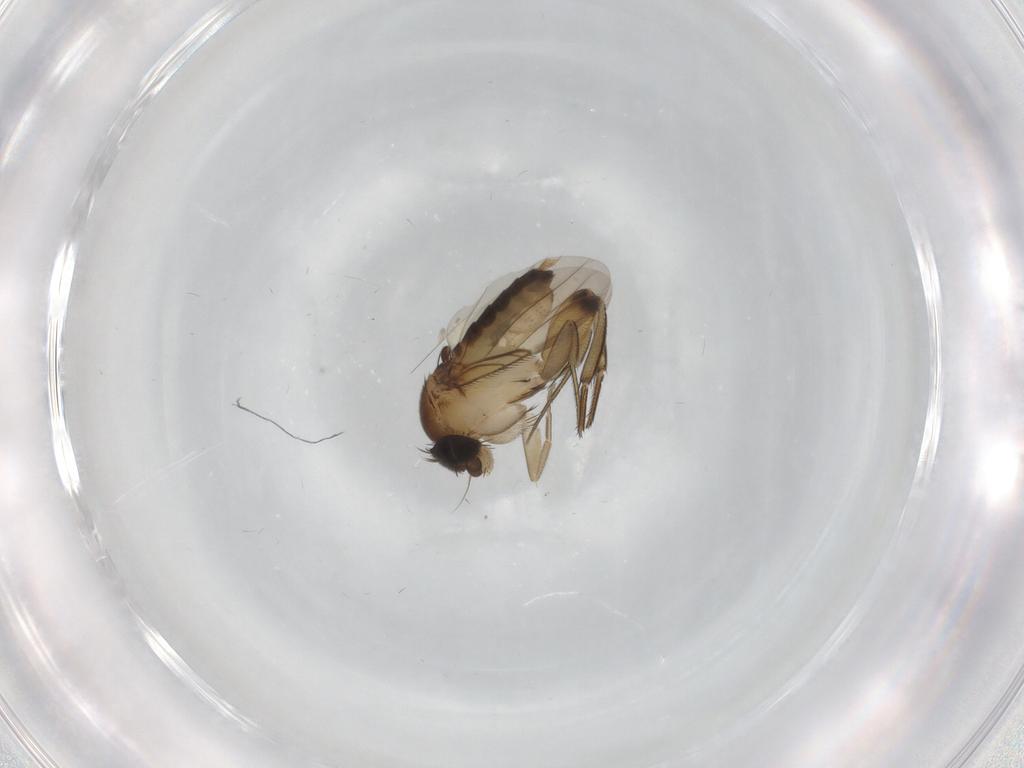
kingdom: Animalia
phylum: Arthropoda
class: Insecta
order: Diptera
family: Phoridae
